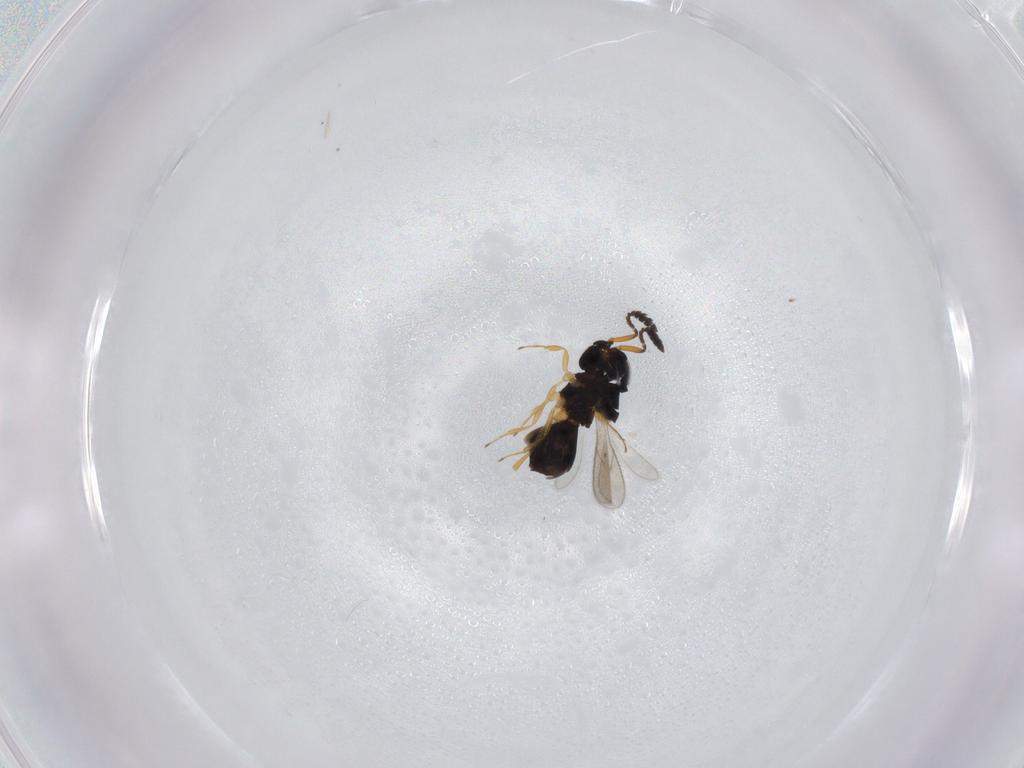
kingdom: Animalia
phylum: Arthropoda
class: Insecta
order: Hymenoptera
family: Scelionidae
